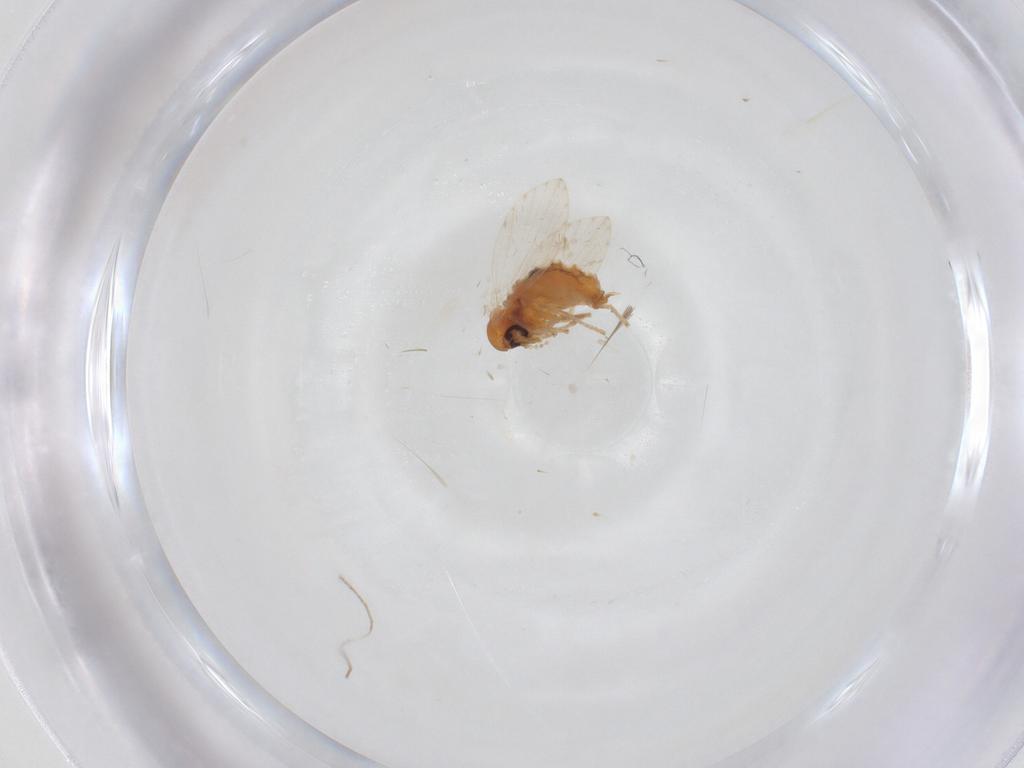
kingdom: Animalia
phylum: Arthropoda
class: Insecta
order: Diptera
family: Psychodidae
